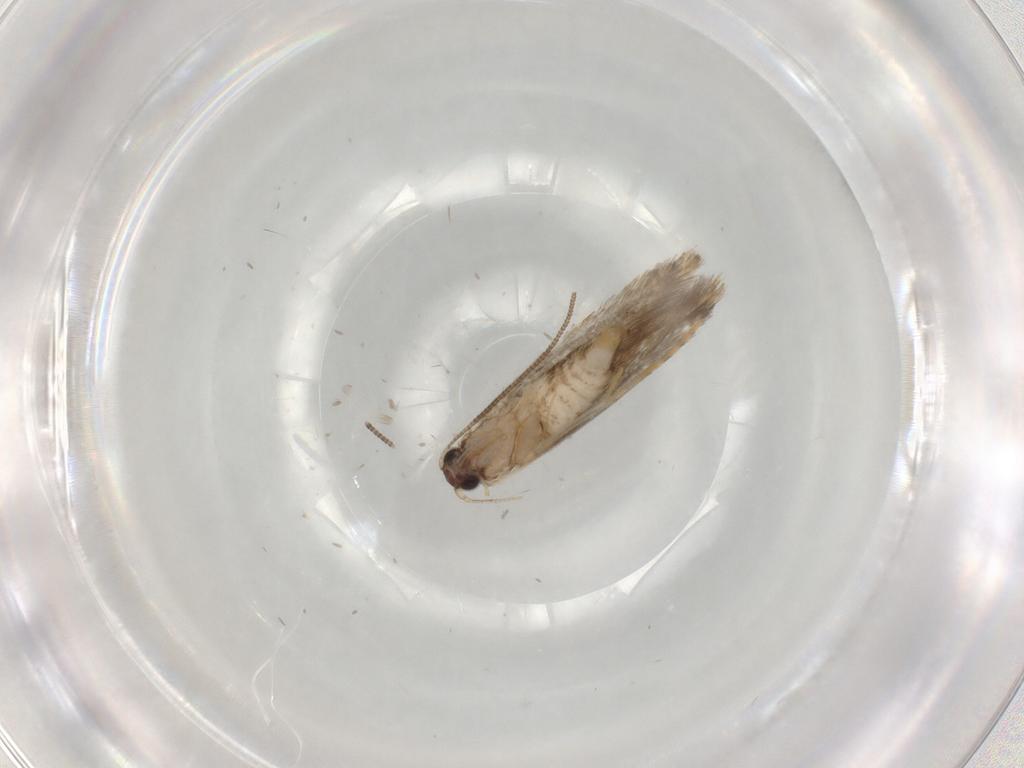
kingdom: Animalia
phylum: Arthropoda
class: Insecta
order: Lepidoptera
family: Autostichidae
